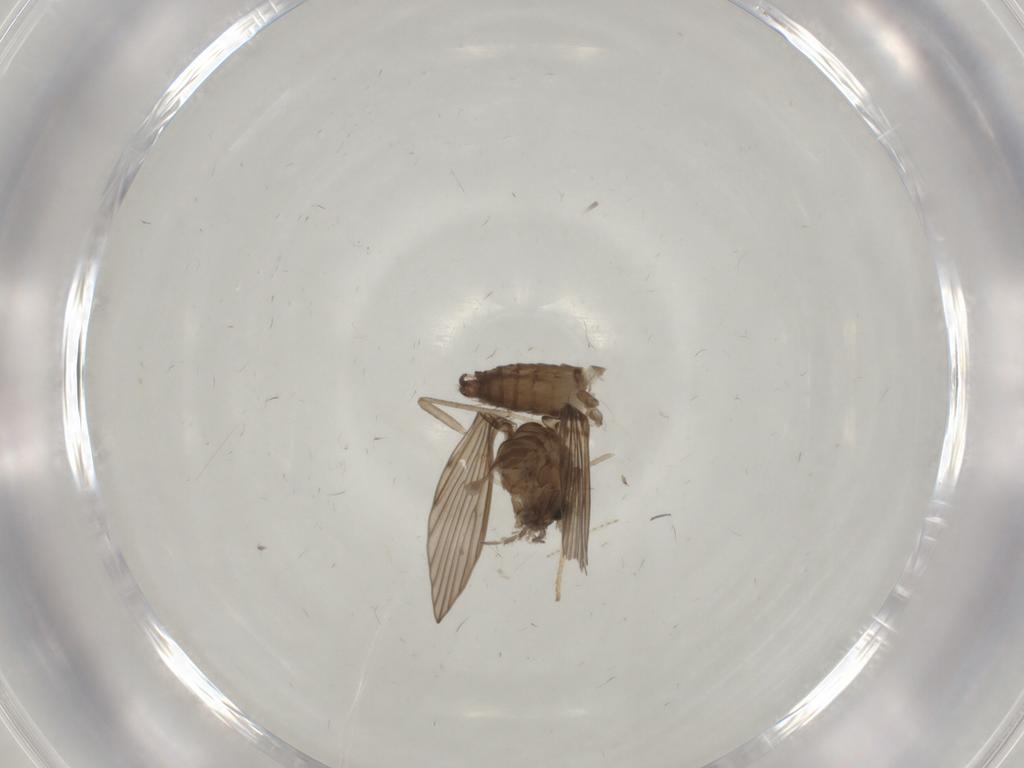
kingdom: Animalia
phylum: Arthropoda
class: Insecta
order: Diptera
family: Psychodidae
